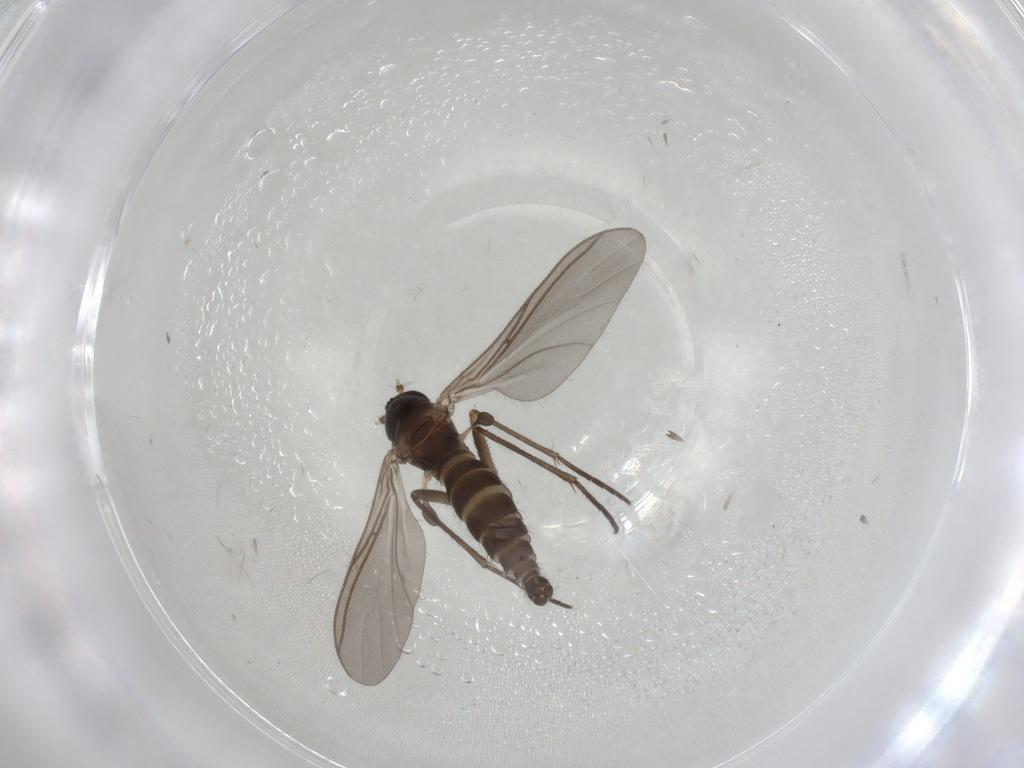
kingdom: Animalia
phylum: Arthropoda
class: Insecta
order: Diptera
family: Sciaridae
